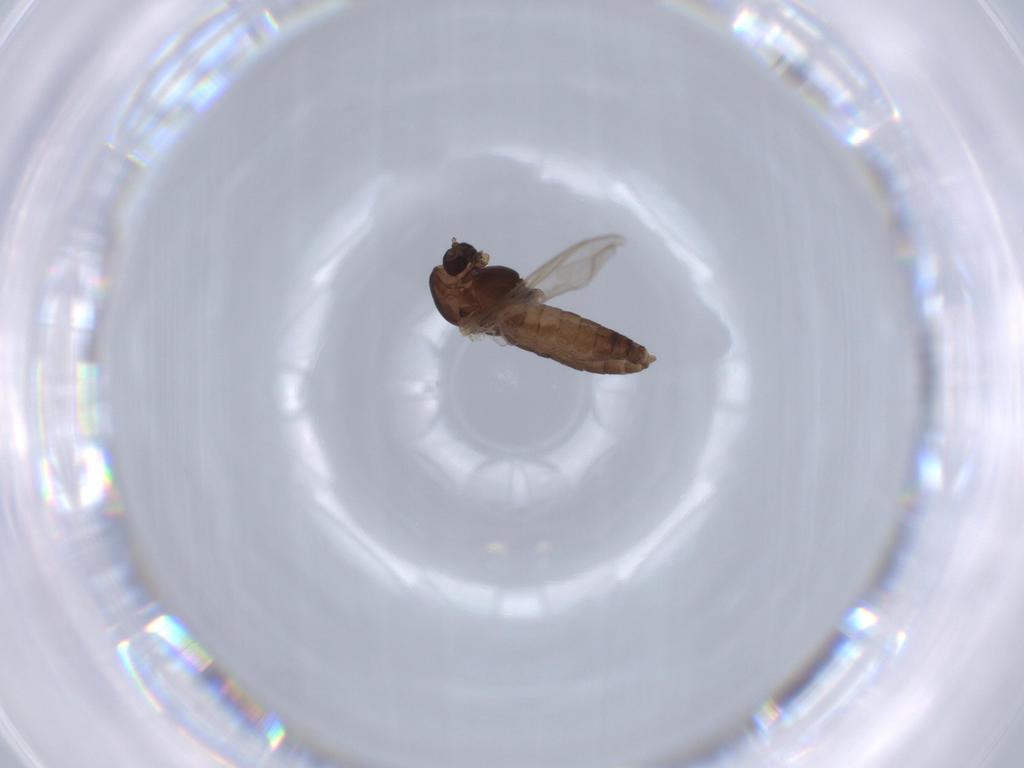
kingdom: Animalia
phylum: Arthropoda
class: Insecta
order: Diptera
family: Chironomidae
